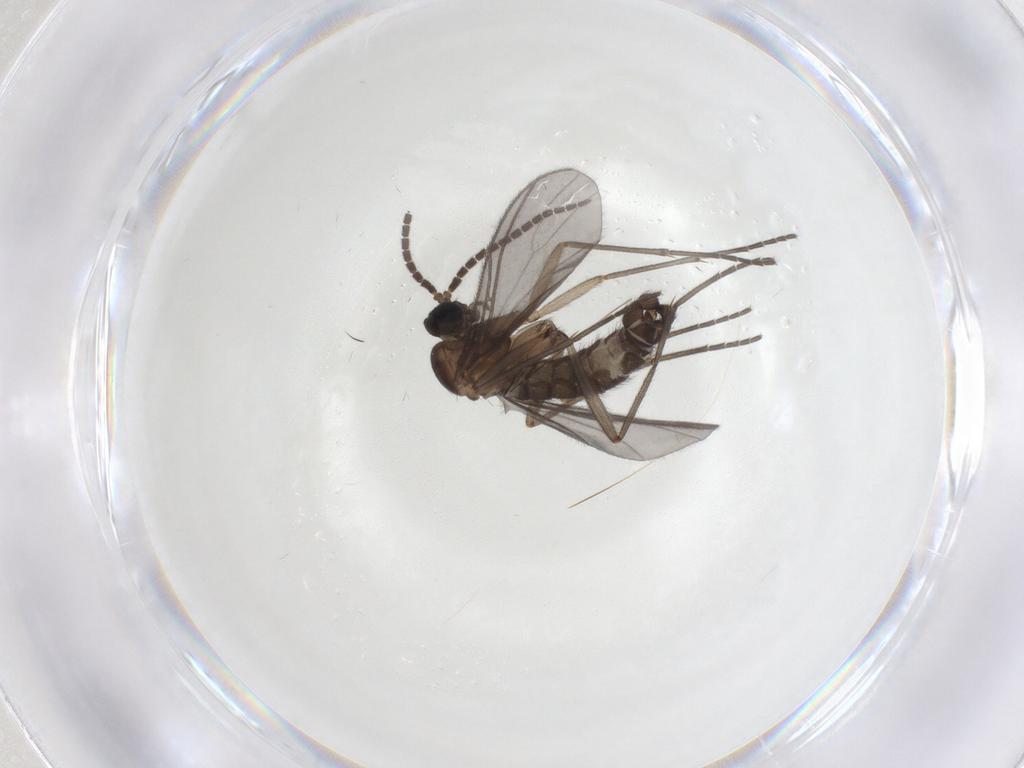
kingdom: Animalia
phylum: Arthropoda
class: Insecta
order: Diptera
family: Sciaridae
